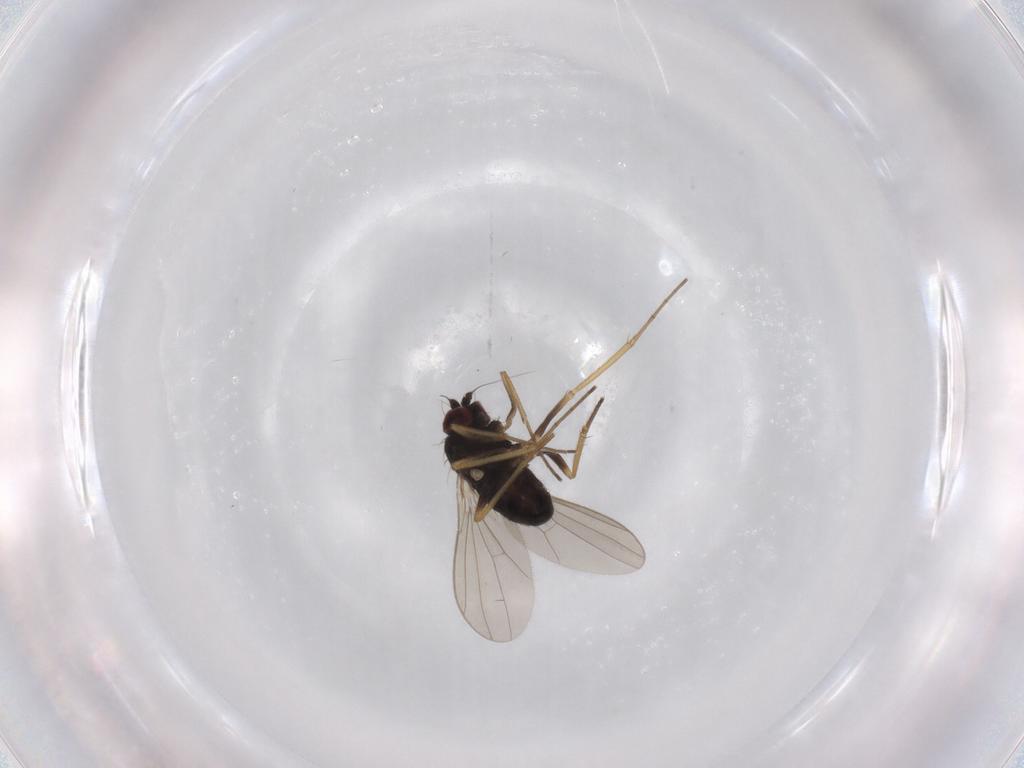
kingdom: Animalia
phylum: Arthropoda
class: Insecta
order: Diptera
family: Dolichopodidae
